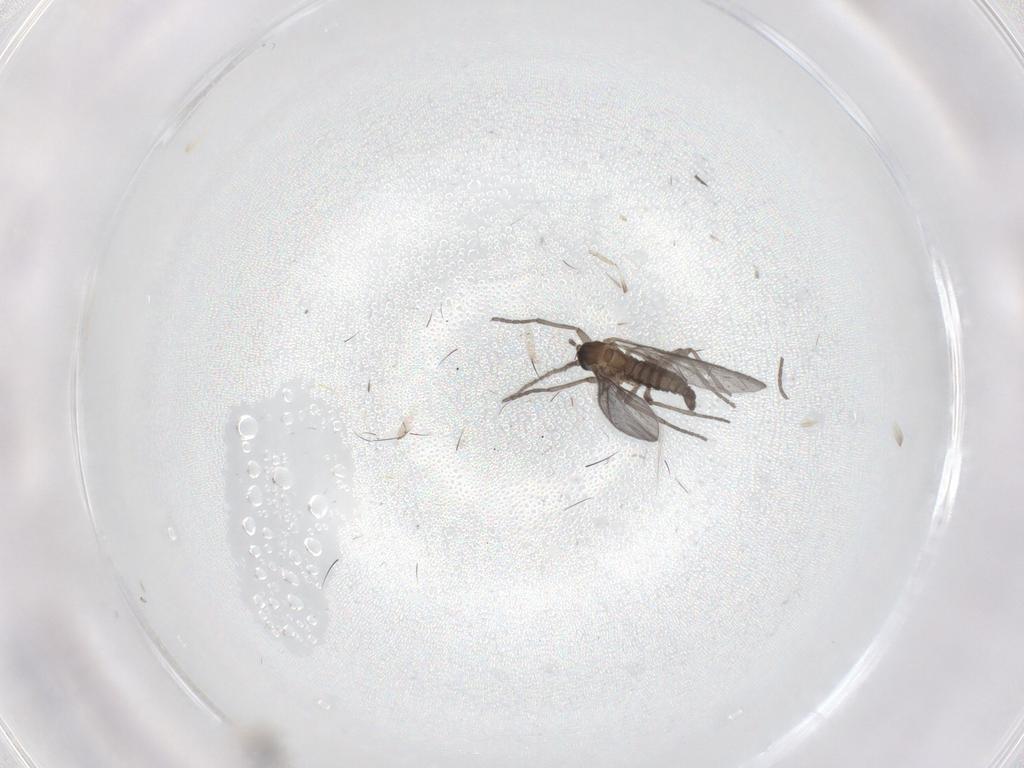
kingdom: Animalia
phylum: Arthropoda
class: Insecta
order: Diptera
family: Sciaridae
